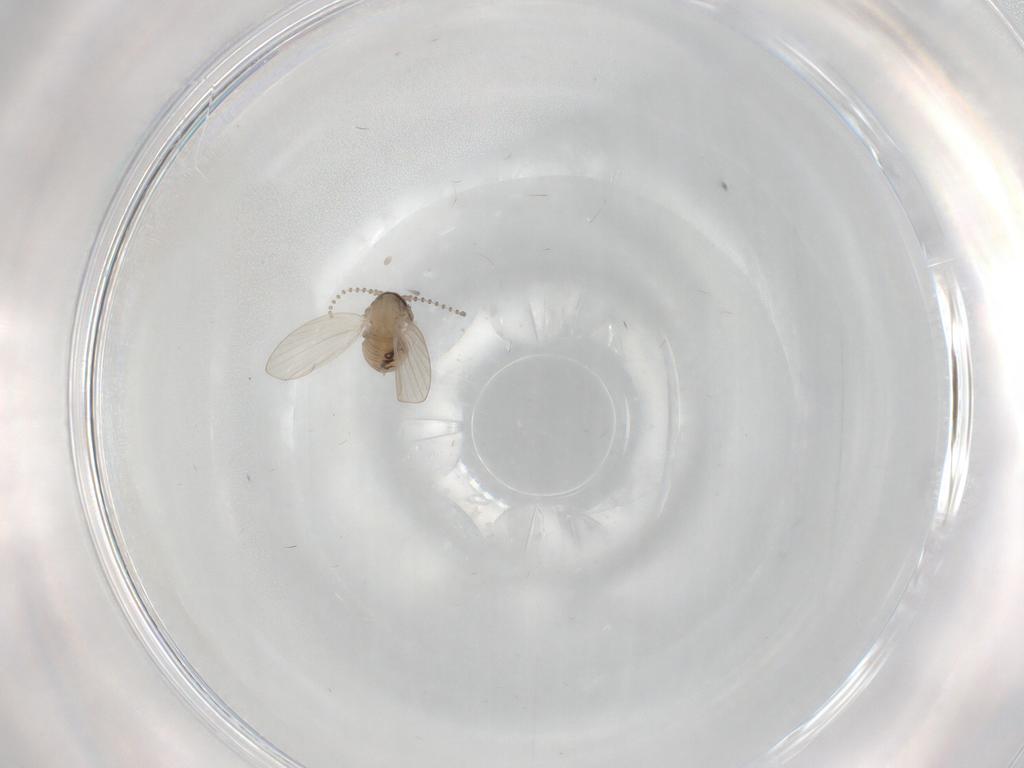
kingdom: Animalia
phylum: Arthropoda
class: Insecta
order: Diptera
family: Psychodidae
